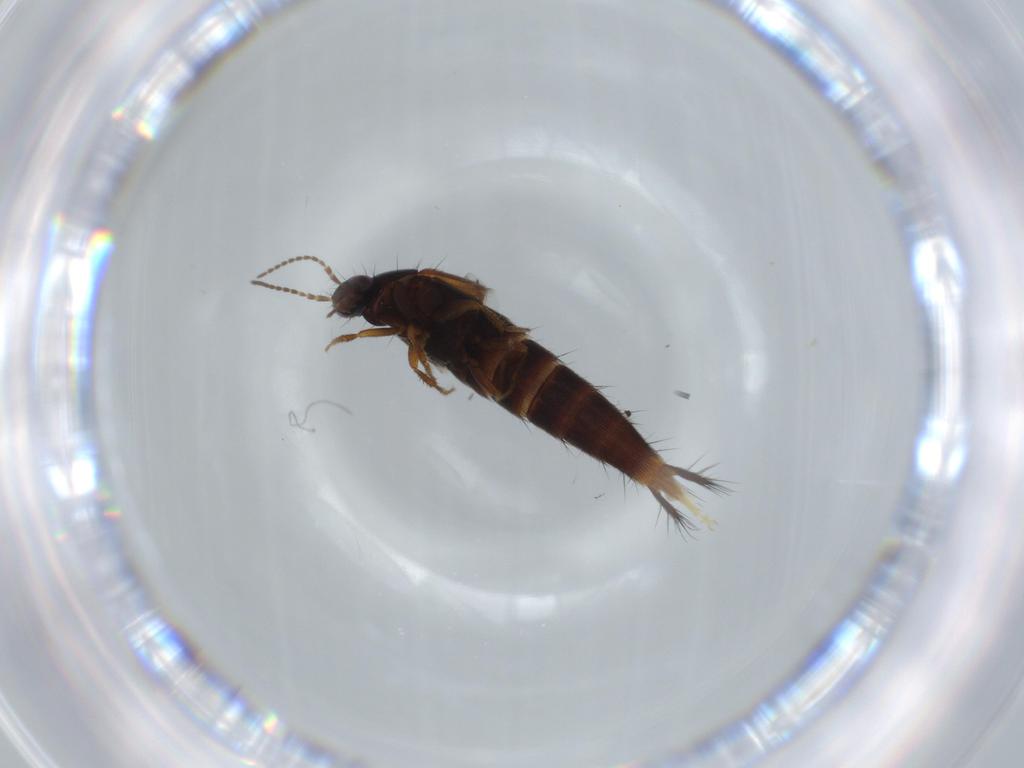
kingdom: Animalia
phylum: Arthropoda
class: Insecta
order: Coleoptera
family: Staphylinidae
